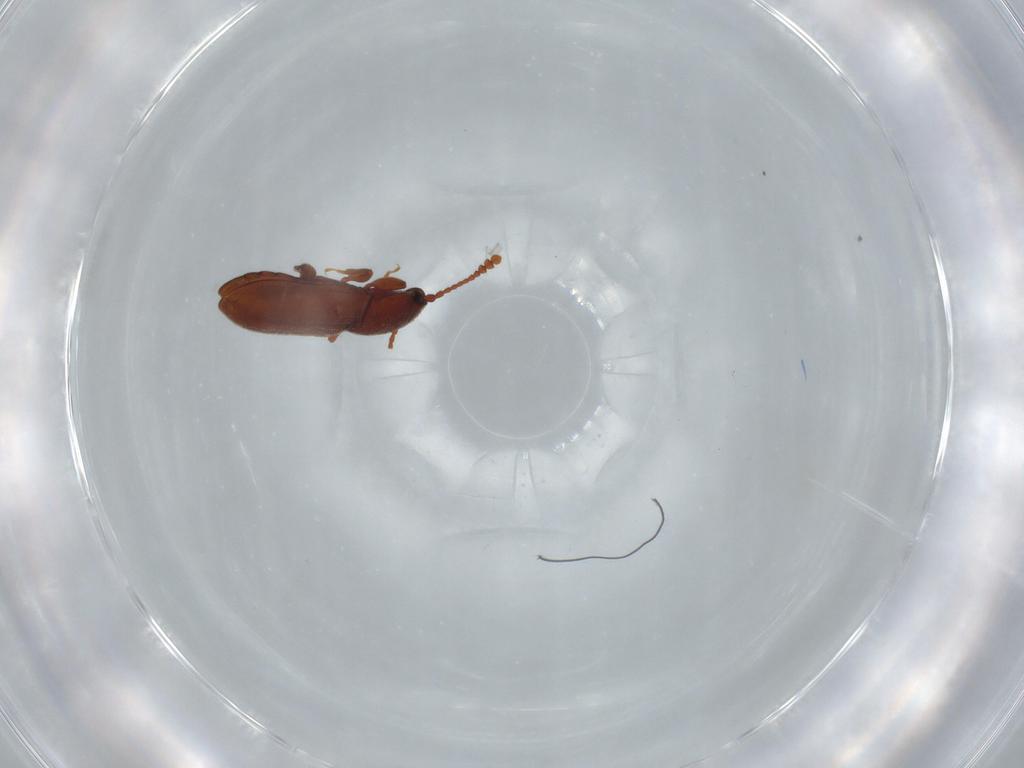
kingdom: Animalia
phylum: Arthropoda
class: Insecta
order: Coleoptera
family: Silvanidae
